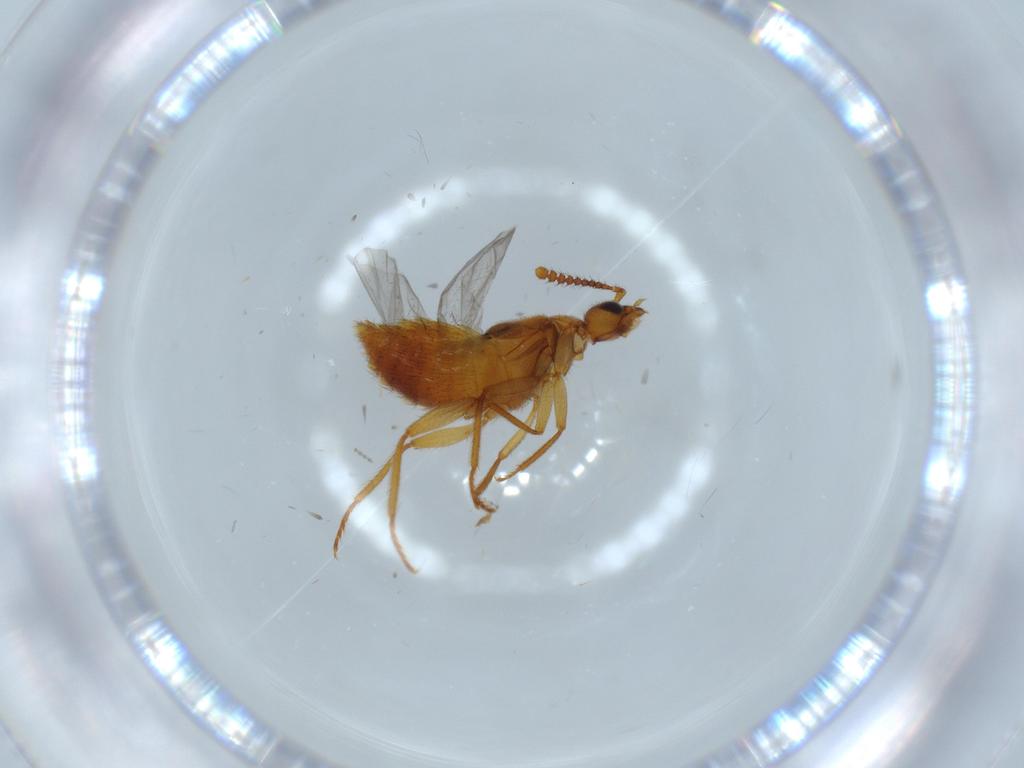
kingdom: Animalia
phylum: Arthropoda
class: Insecta
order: Coleoptera
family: Staphylinidae
